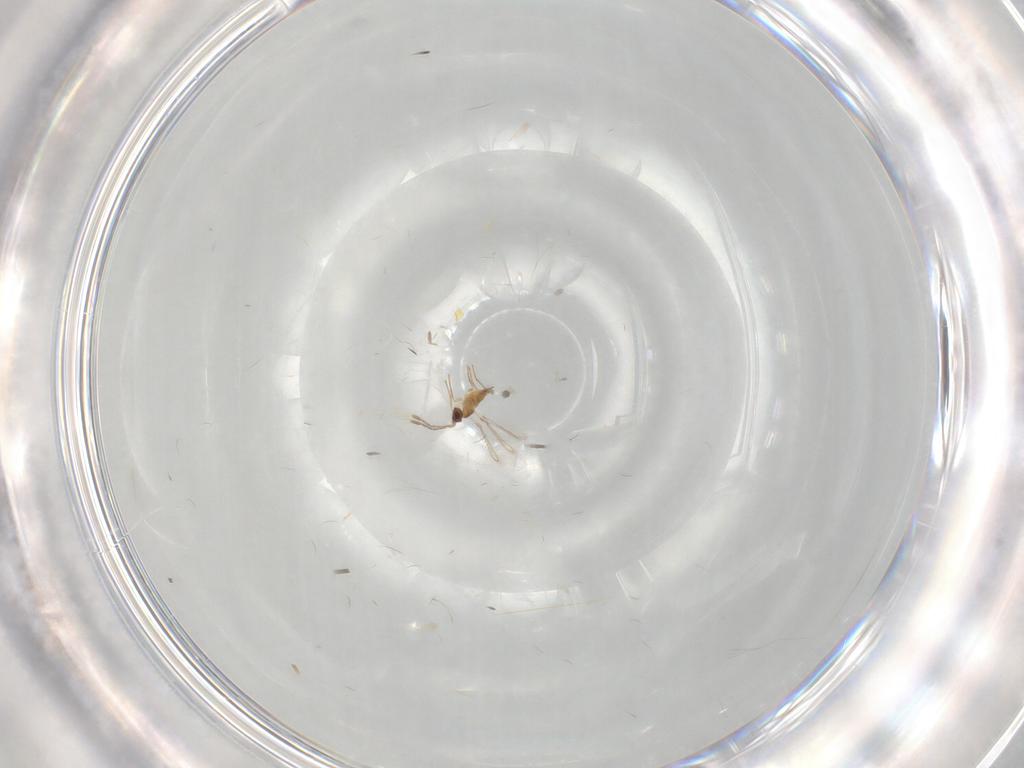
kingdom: Animalia
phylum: Arthropoda
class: Insecta
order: Hymenoptera
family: Mymaridae
